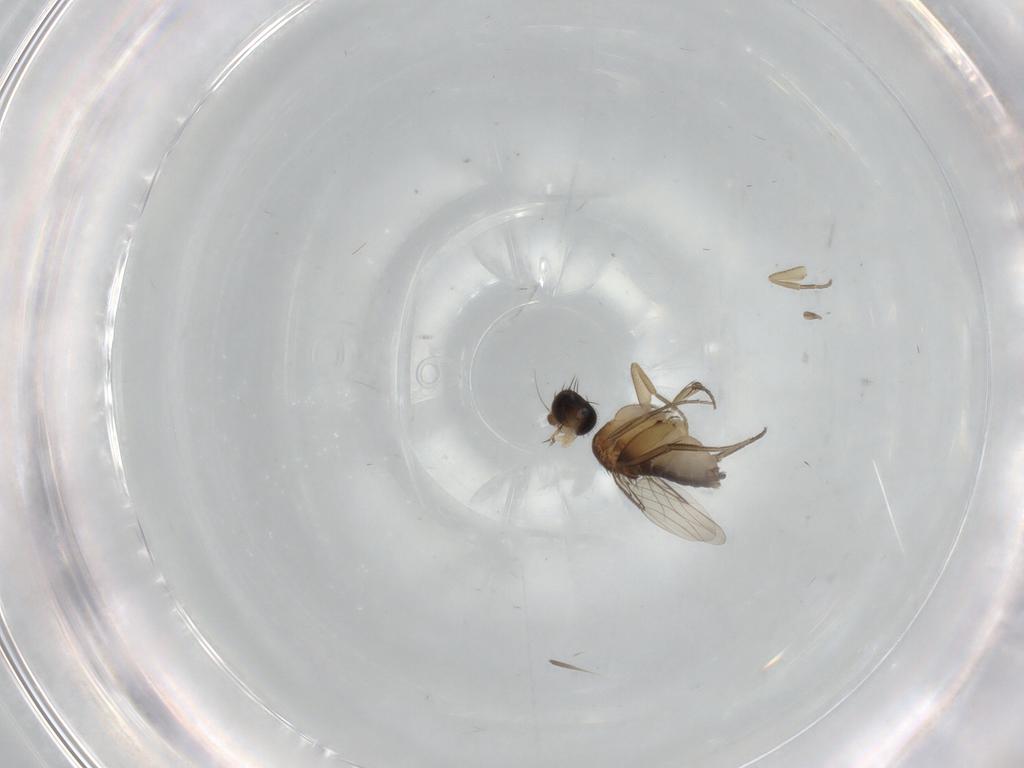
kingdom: Animalia
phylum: Arthropoda
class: Insecta
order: Diptera
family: Phoridae
